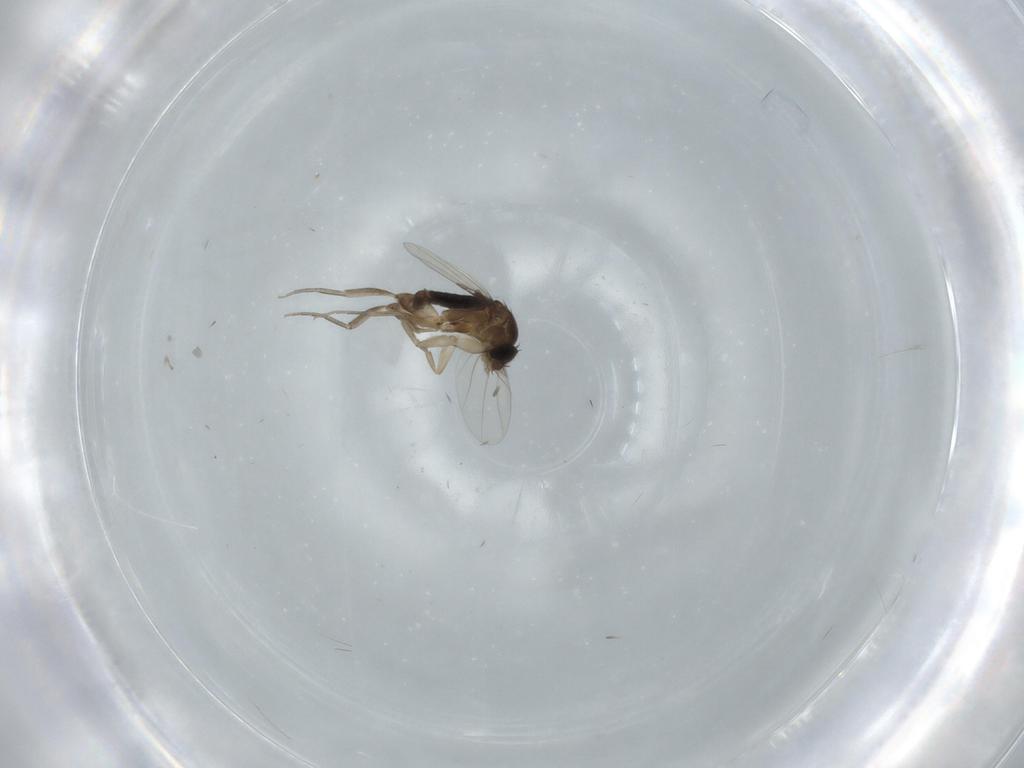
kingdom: Animalia
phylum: Arthropoda
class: Insecta
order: Diptera
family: Phoridae
